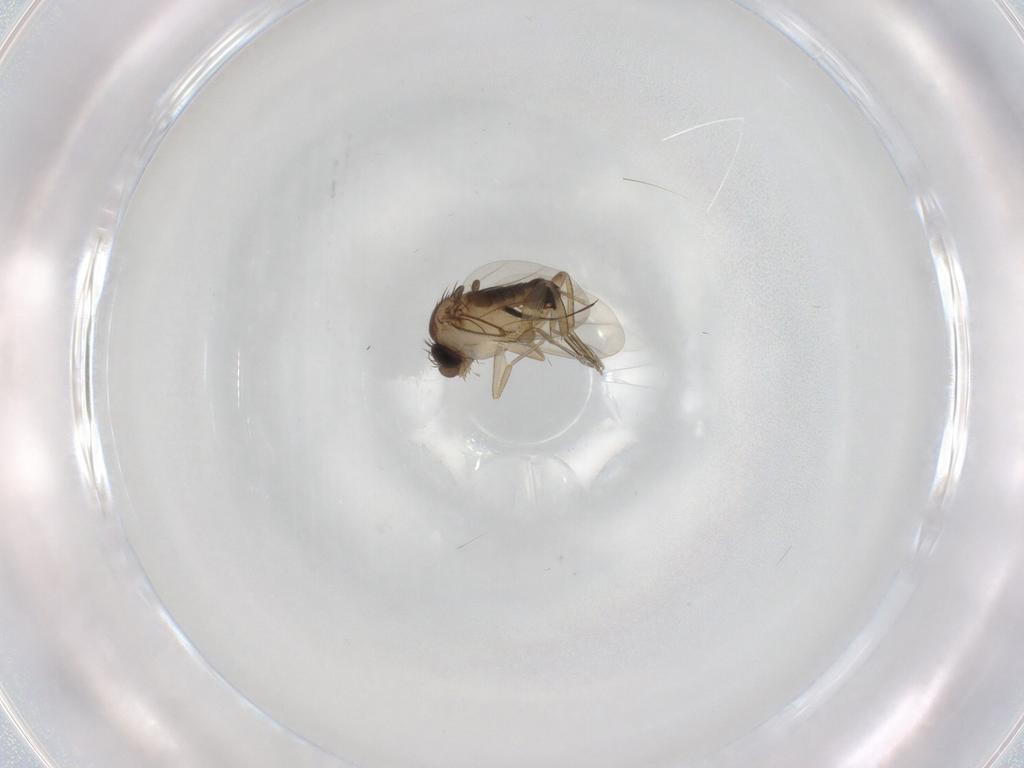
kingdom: Animalia
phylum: Arthropoda
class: Insecta
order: Diptera
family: Phoridae
